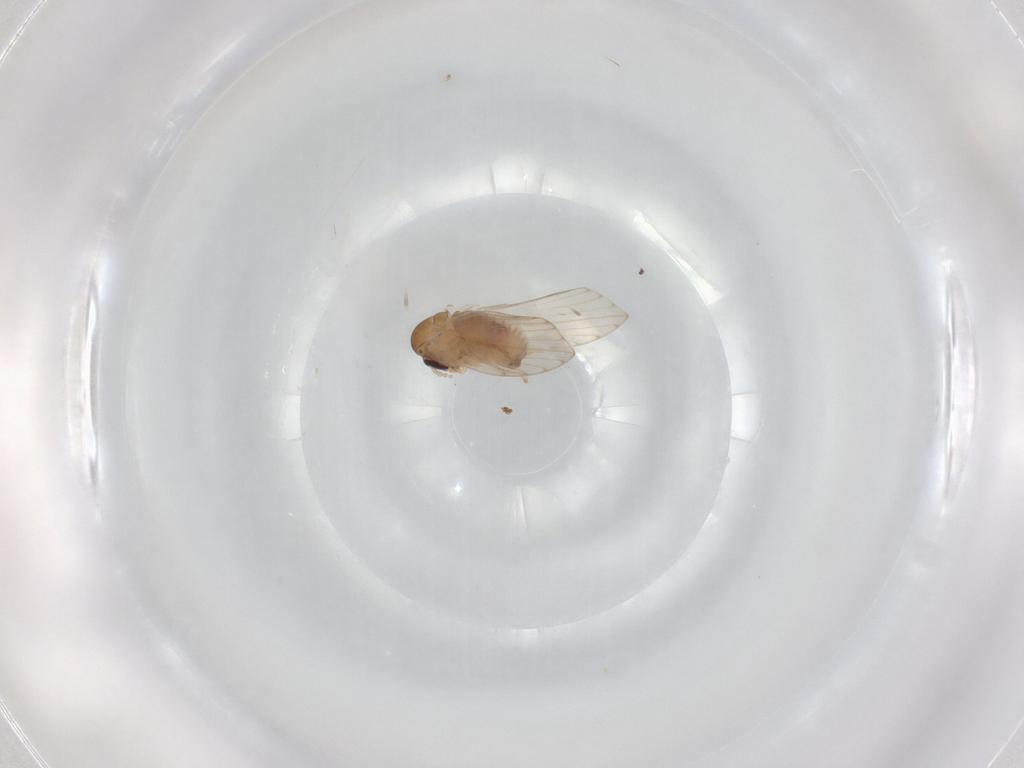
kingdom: Animalia
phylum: Arthropoda
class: Insecta
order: Diptera
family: Psychodidae
